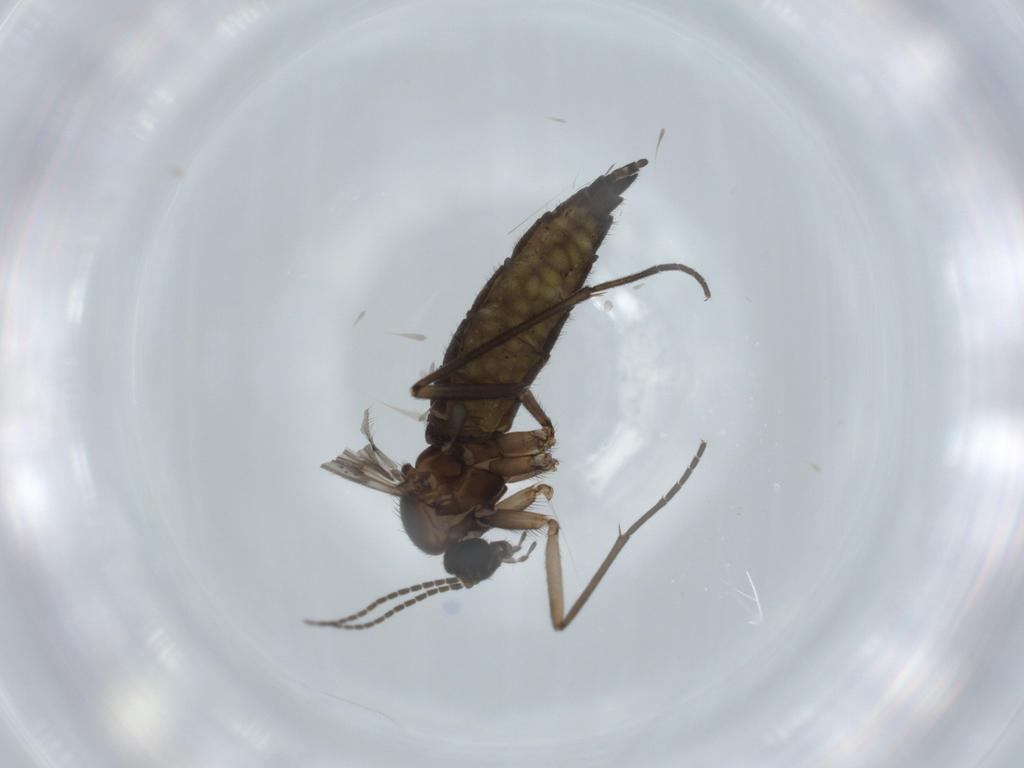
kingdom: Animalia
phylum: Arthropoda
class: Insecta
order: Diptera
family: Sciaridae
